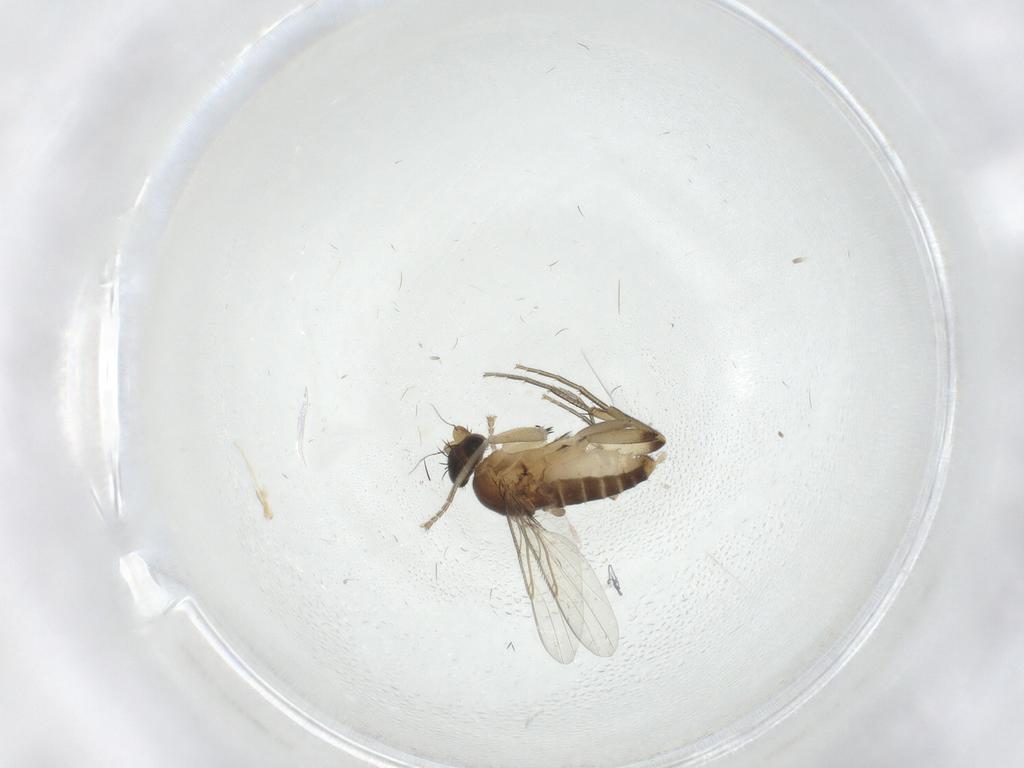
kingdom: Animalia
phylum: Arthropoda
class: Insecta
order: Diptera
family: Phoridae
